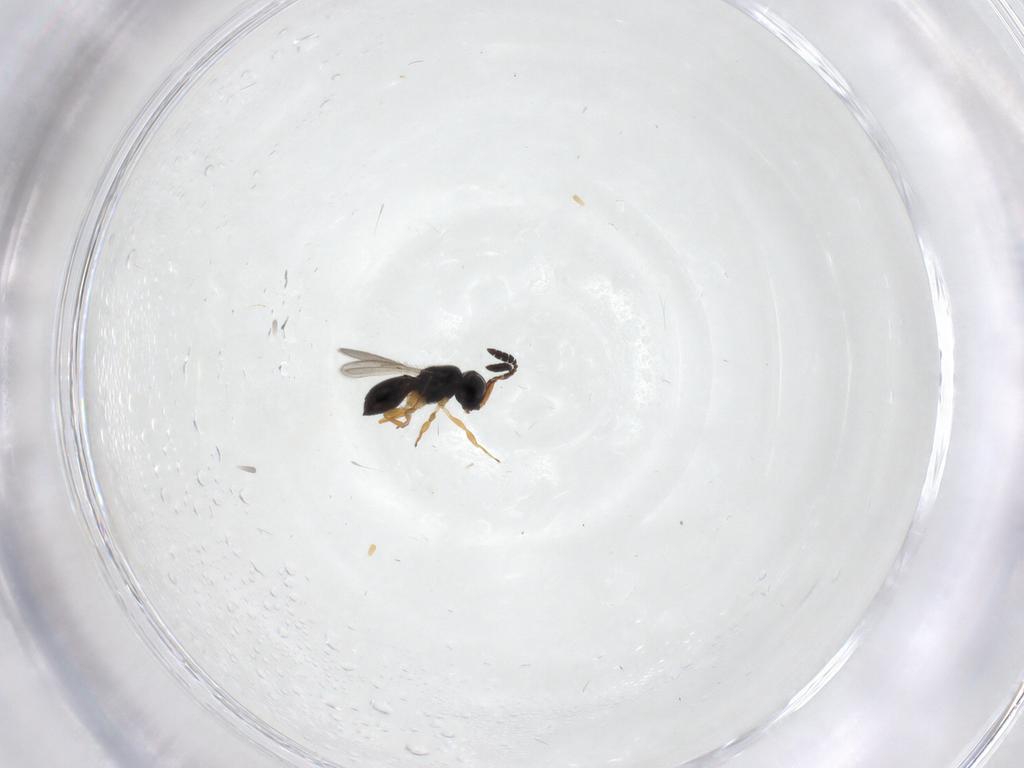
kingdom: Animalia
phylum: Arthropoda
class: Insecta
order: Hymenoptera
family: Scelionidae
